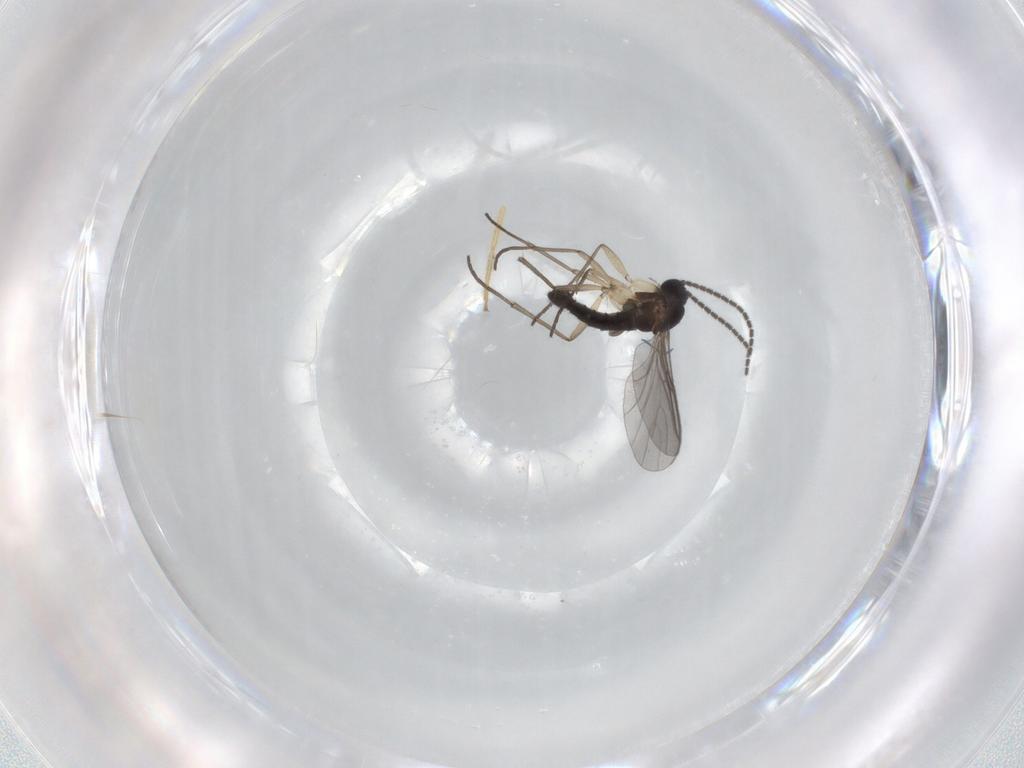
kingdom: Animalia
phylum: Arthropoda
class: Insecta
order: Diptera
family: Sciaridae
